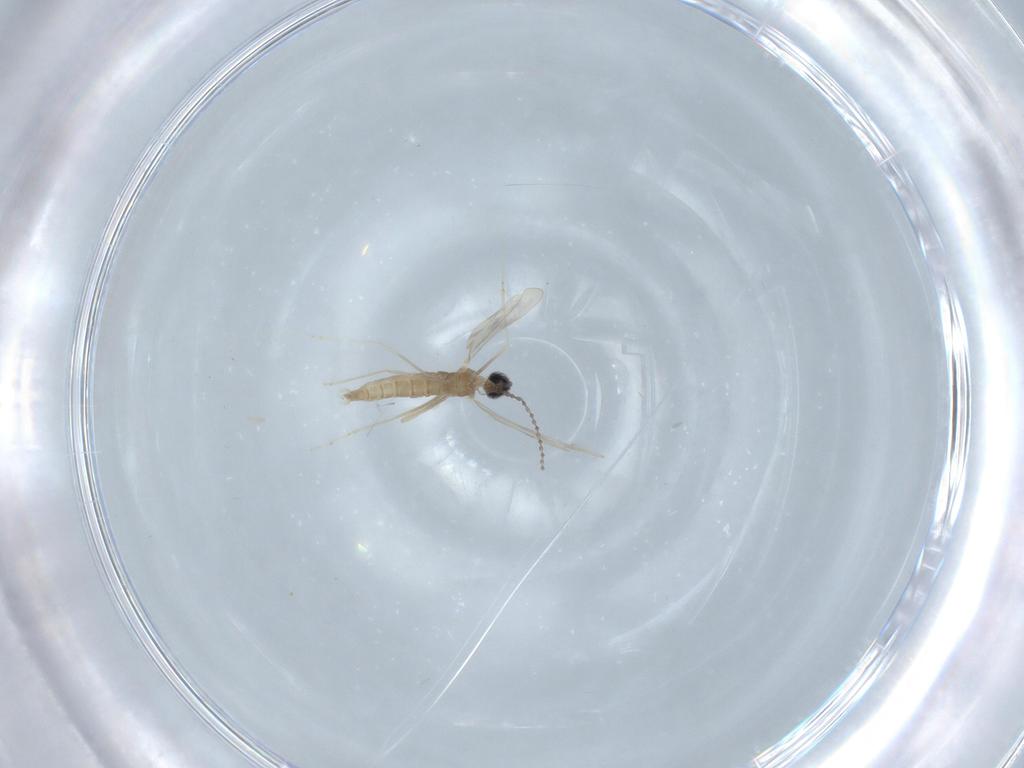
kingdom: Animalia
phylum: Arthropoda
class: Insecta
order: Diptera
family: Cecidomyiidae
